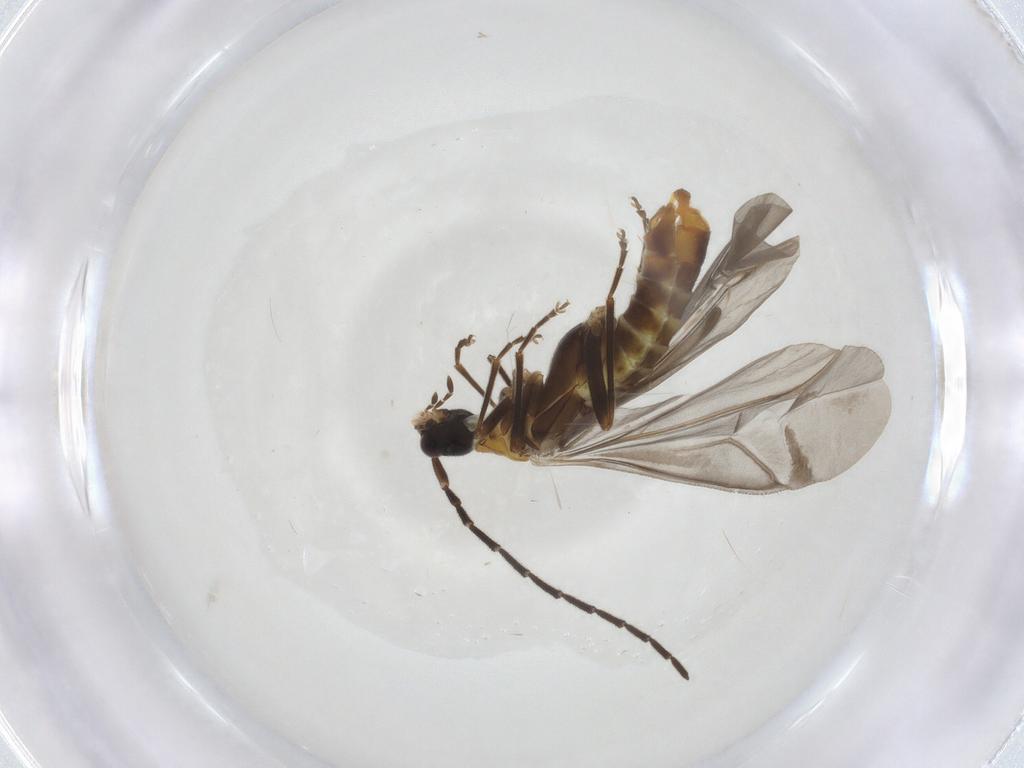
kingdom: Animalia
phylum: Arthropoda
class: Insecta
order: Coleoptera
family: Cantharidae
